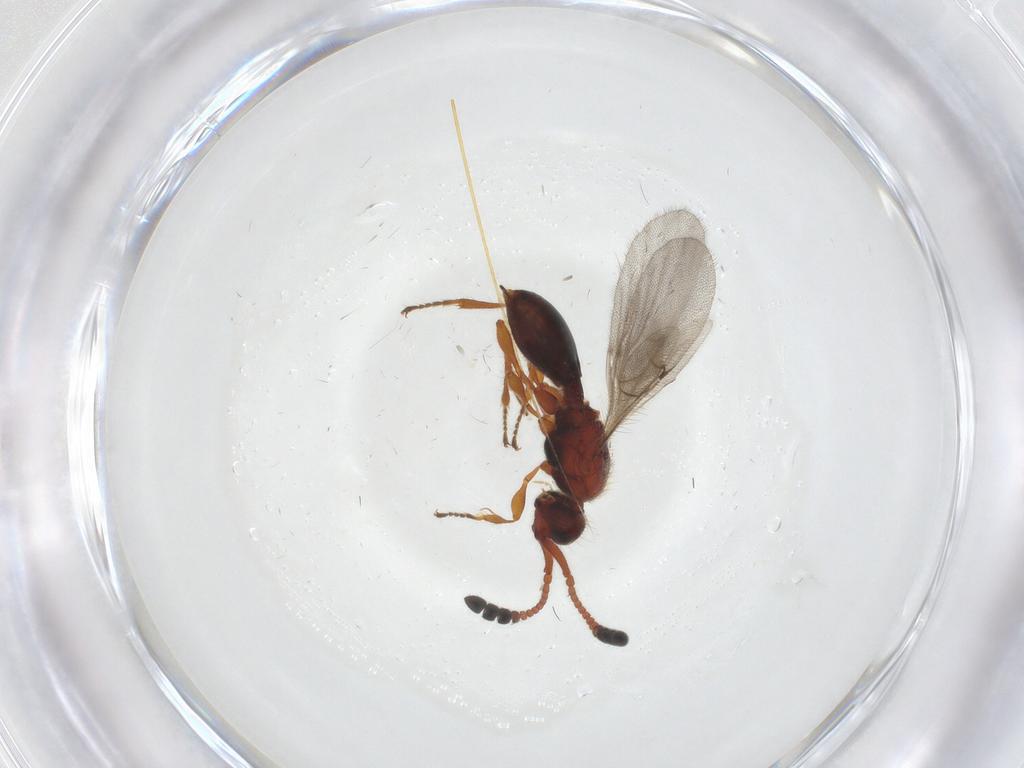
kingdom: Animalia
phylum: Arthropoda
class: Insecta
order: Hymenoptera
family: Diapriidae
